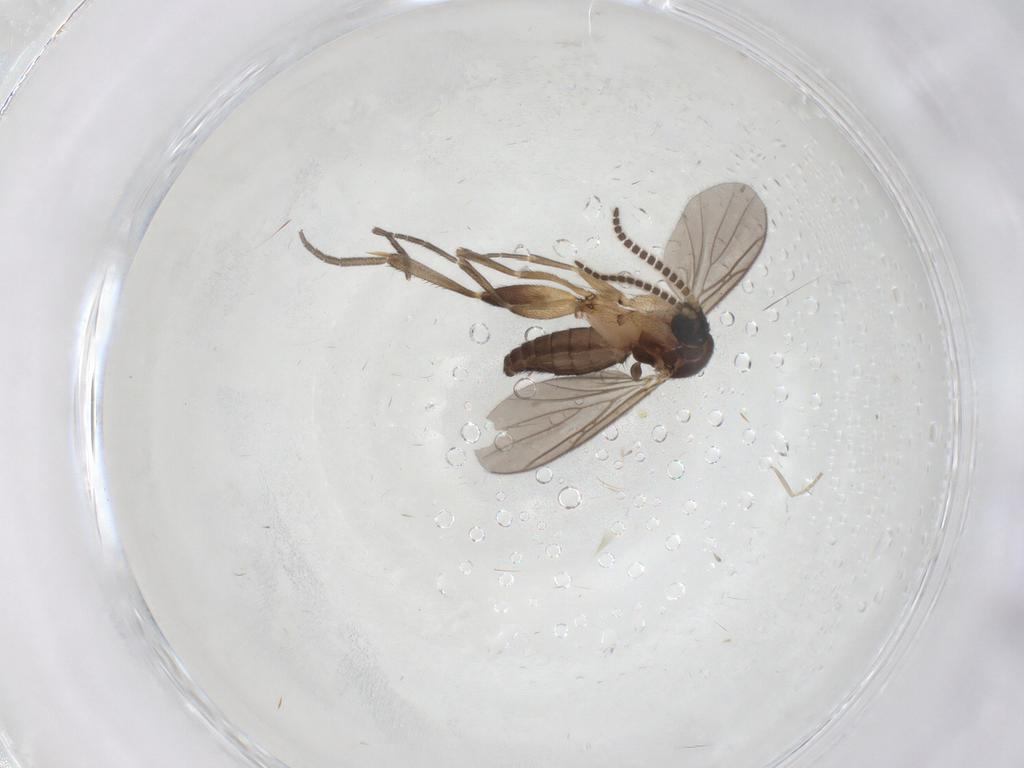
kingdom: Animalia
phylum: Arthropoda
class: Insecta
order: Diptera
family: Cecidomyiidae
